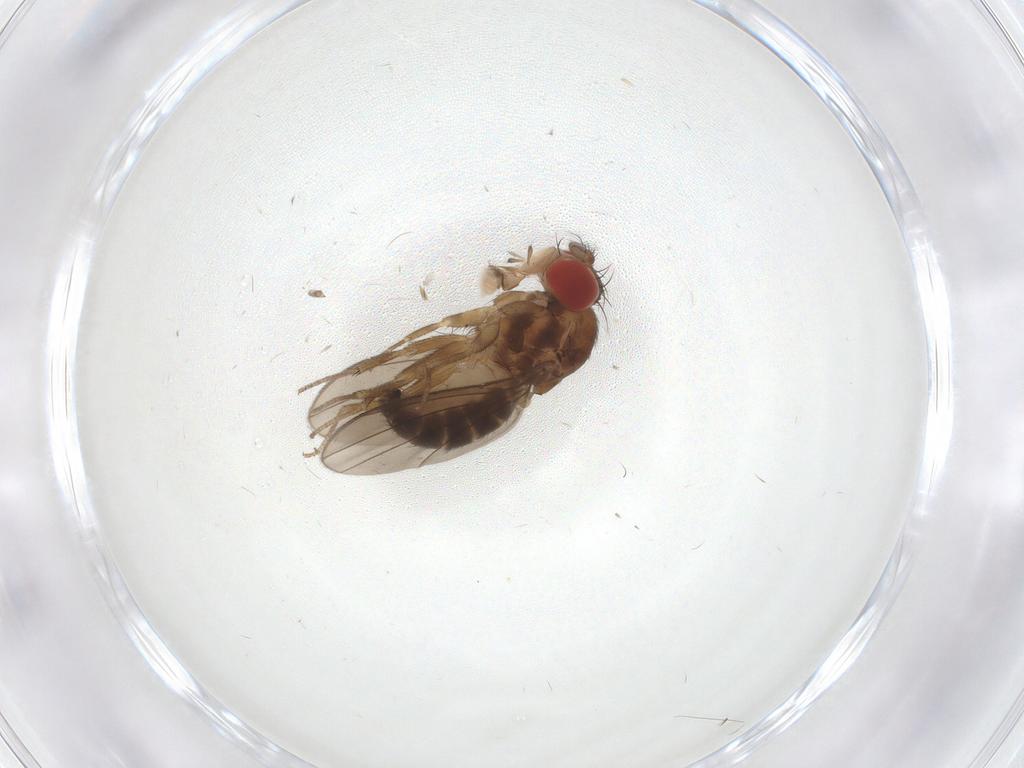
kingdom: Animalia
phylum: Arthropoda
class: Insecta
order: Diptera
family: Drosophilidae
